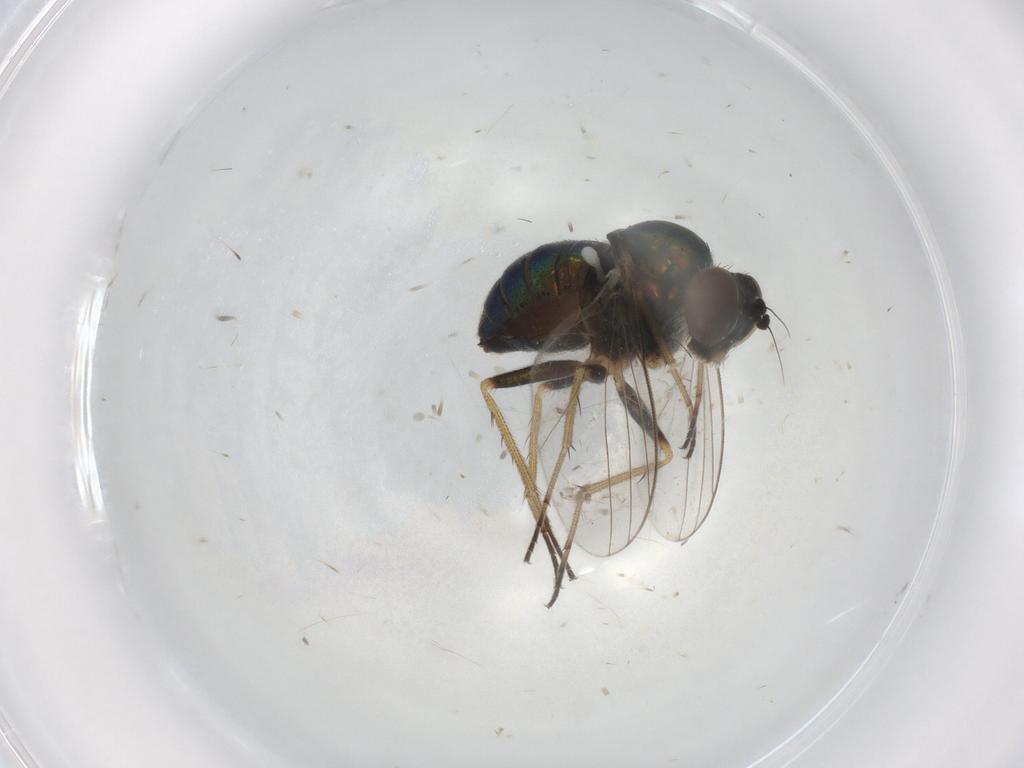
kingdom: Animalia
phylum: Arthropoda
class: Insecta
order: Diptera
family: Ephydridae
